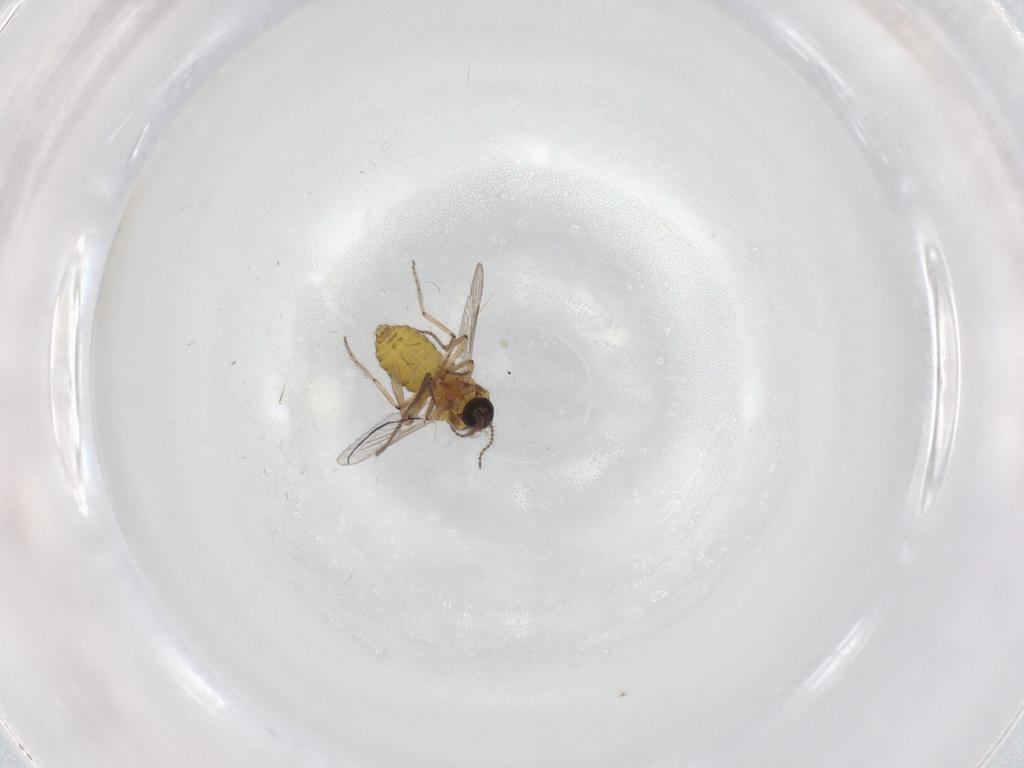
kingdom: Animalia
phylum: Arthropoda
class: Insecta
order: Diptera
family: Ceratopogonidae
